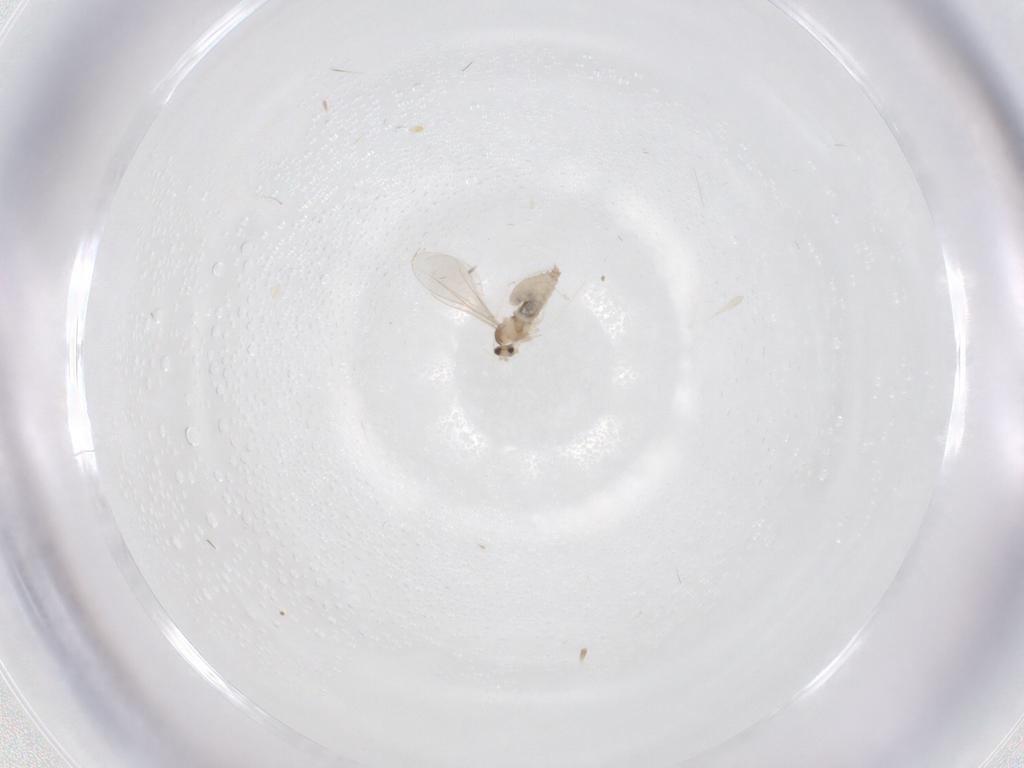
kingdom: Animalia
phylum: Arthropoda
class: Insecta
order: Diptera
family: Cecidomyiidae
